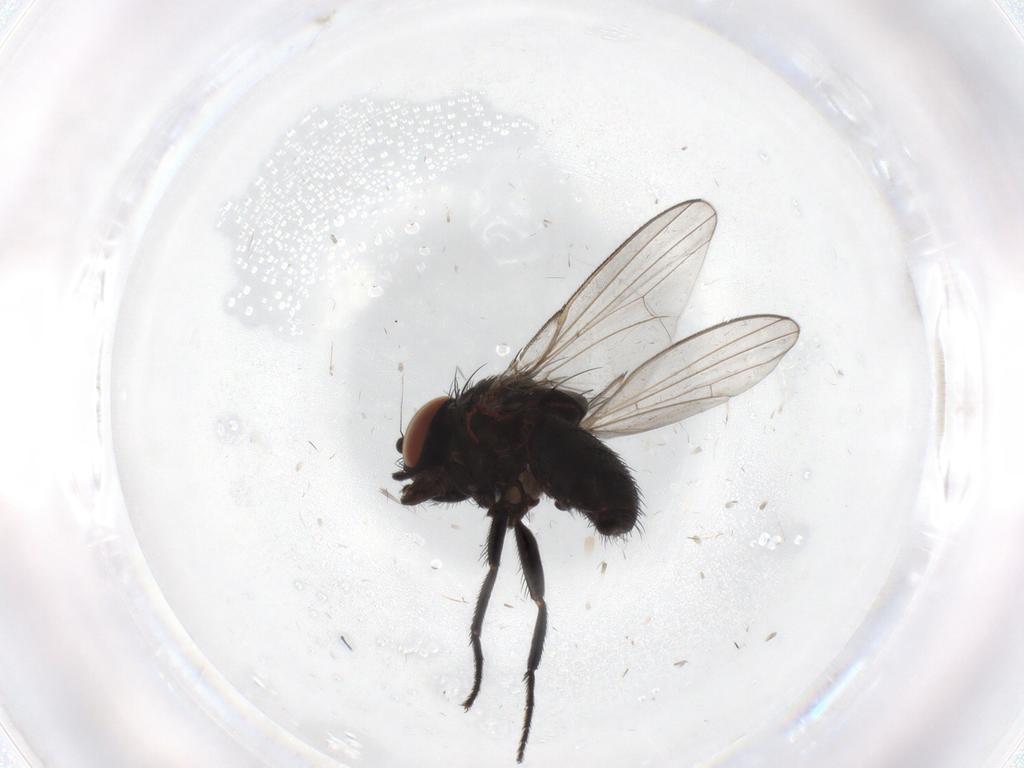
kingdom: Animalia
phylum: Arthropoda
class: Insecta
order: Diptera
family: Milichiidae
